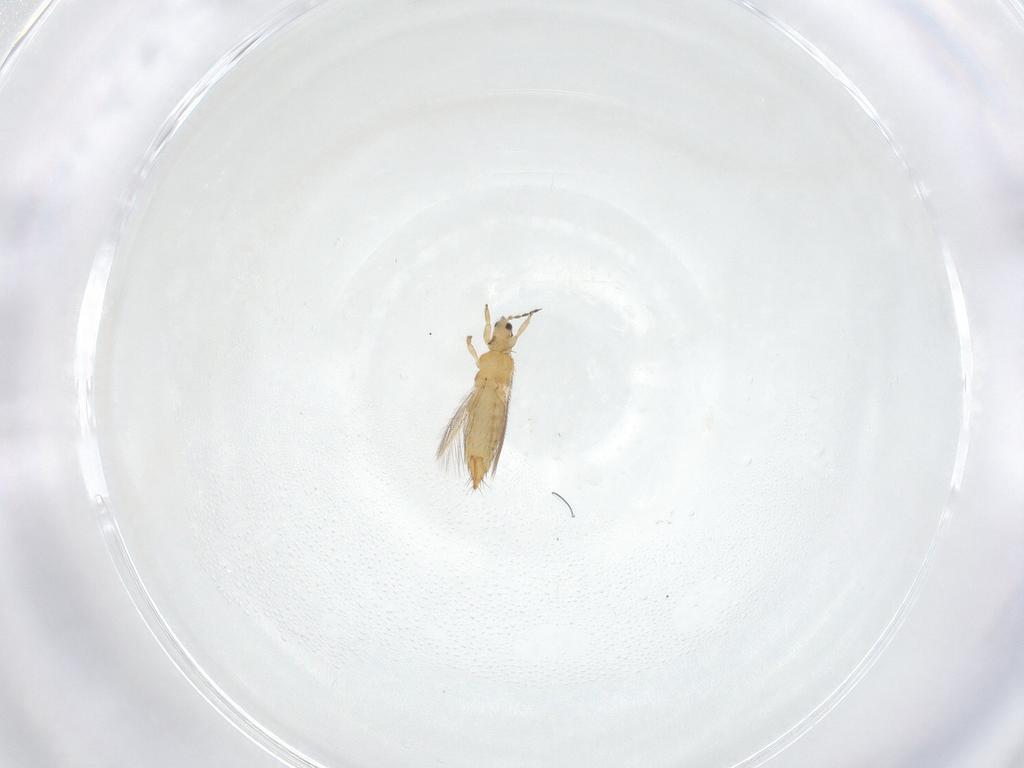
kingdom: Animalia
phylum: Arthropoda
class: Insecta
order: Thysanoptera
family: Thripidae
